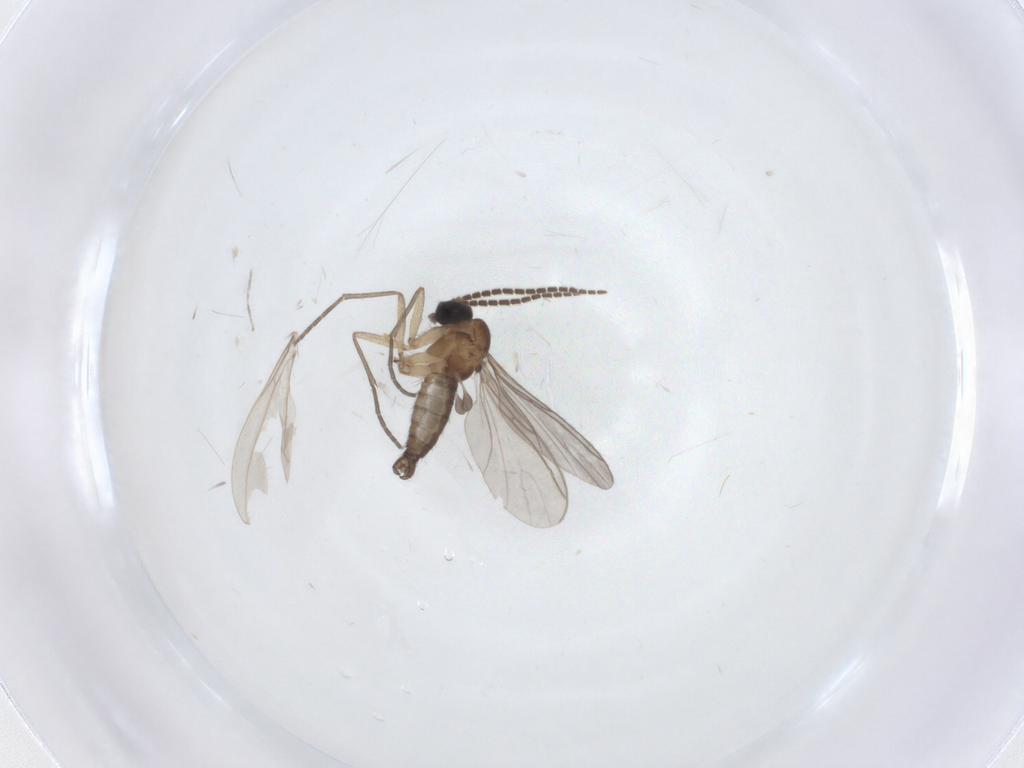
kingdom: Animalia
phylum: Arthropoda
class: Insecta
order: Diptera
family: Sciaridae
